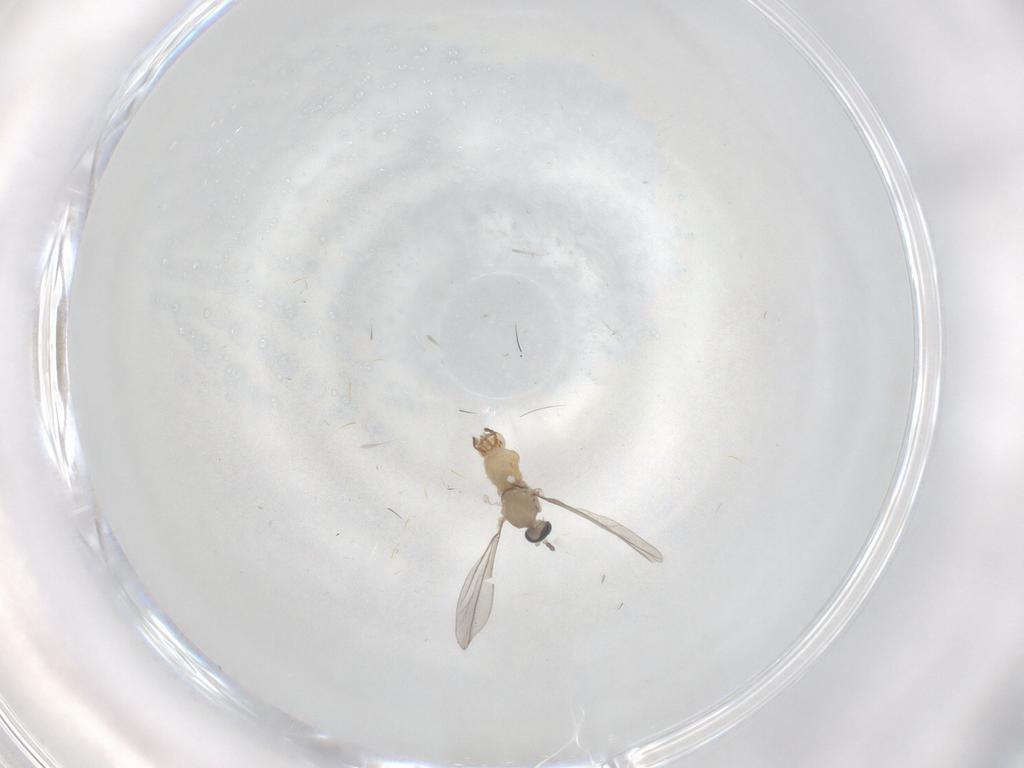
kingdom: Animalia
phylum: Arthropoda
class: Insecta
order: Diptera
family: Cecidomyiidae
